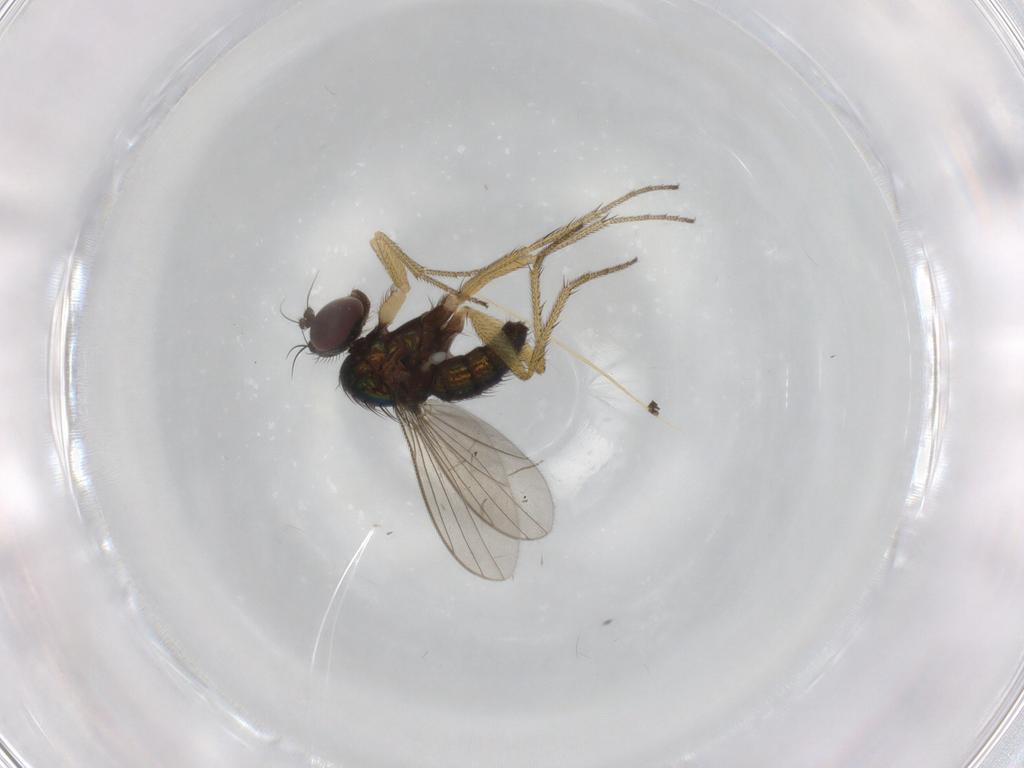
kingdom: Animalia
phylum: Arthropoda
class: Insecta
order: Diptera
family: Dolichopodidae
